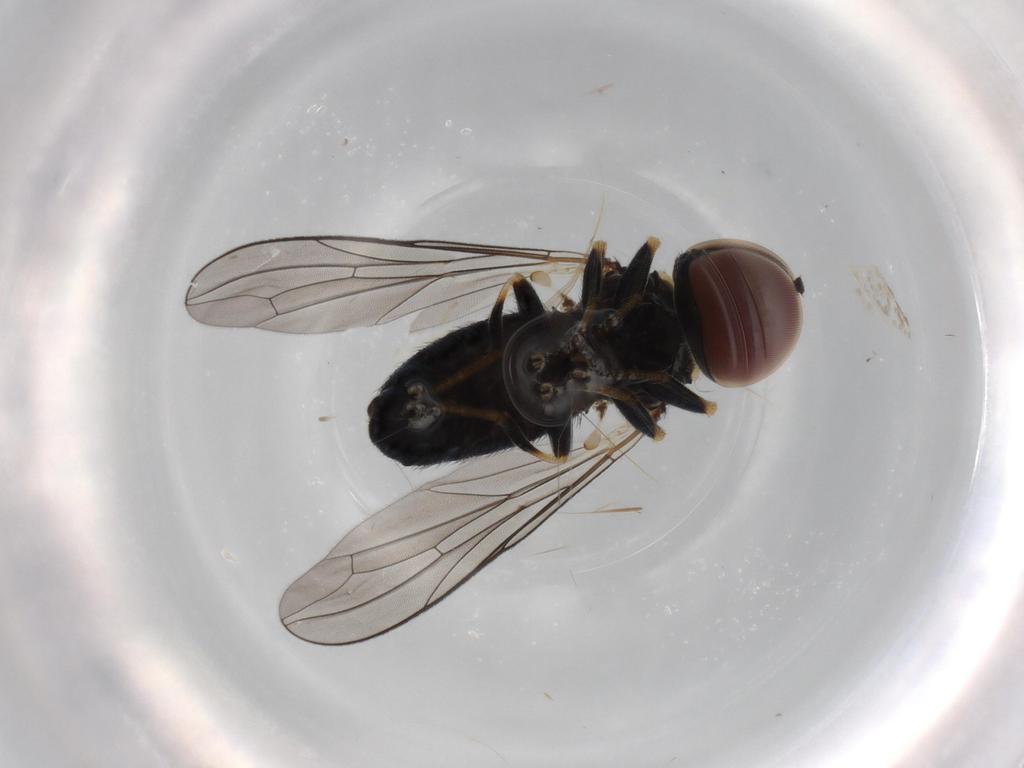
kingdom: Animalia
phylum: Arthropoda
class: Insecta
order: Diptera
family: Pipunculidae
